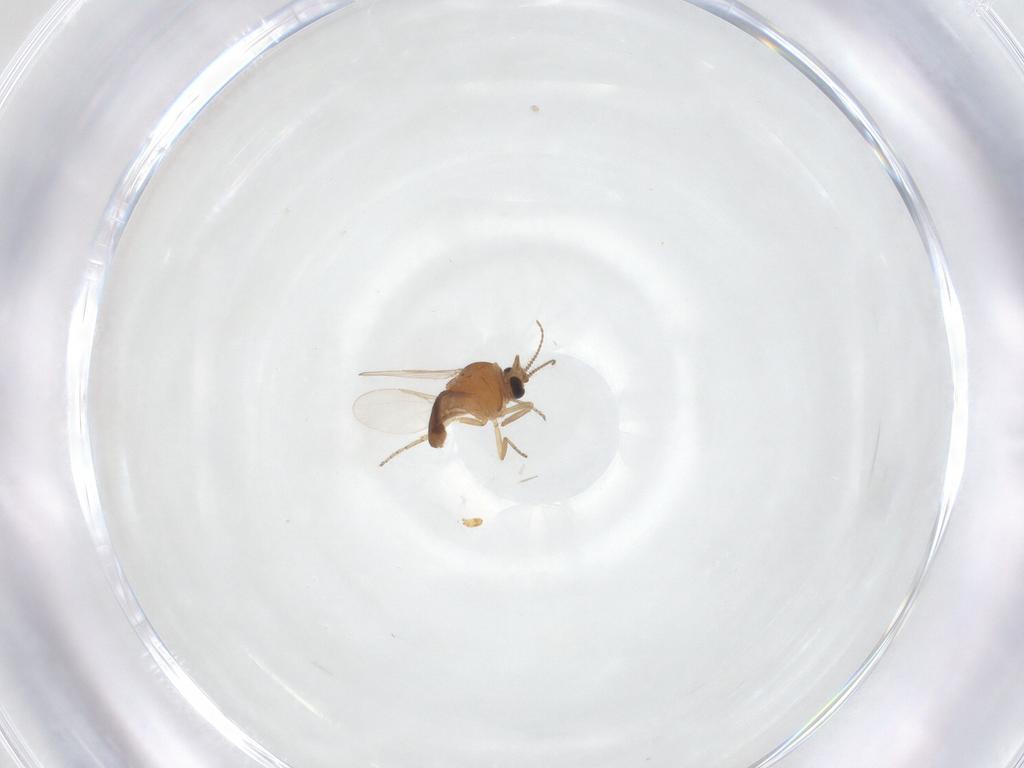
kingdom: Animalia
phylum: Arthropoda
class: Insecta
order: Diptera
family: Ceratopogonidae
